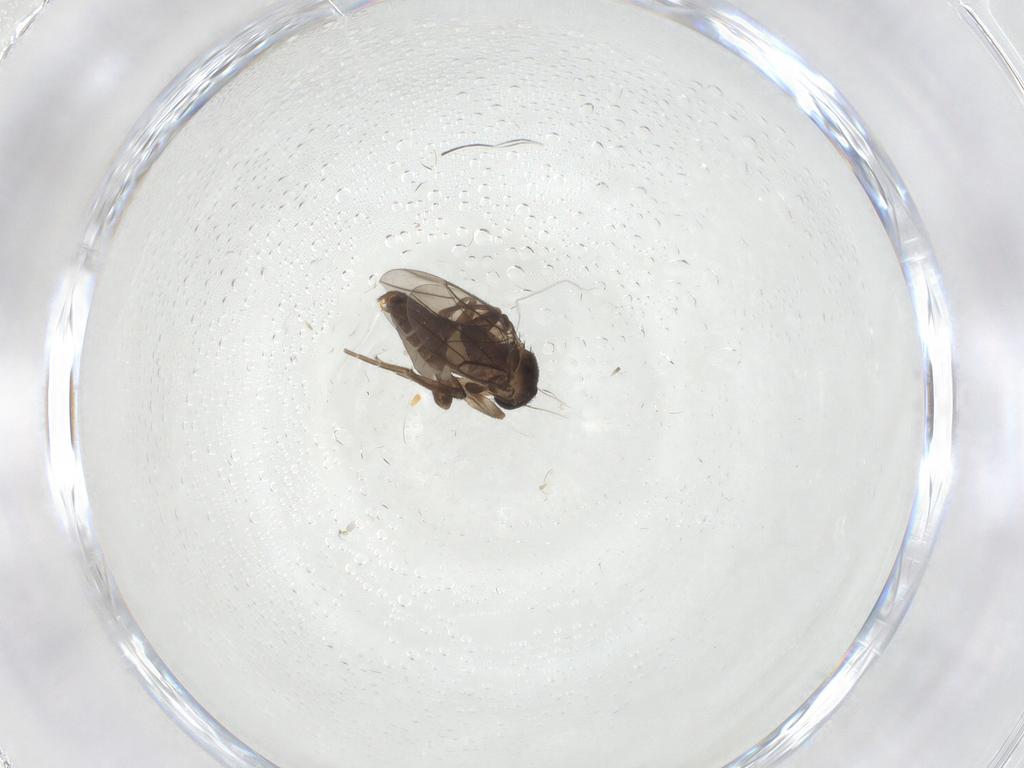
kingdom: Animalia
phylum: Arthropoda
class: Insecta
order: Diptera
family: Phoridae
